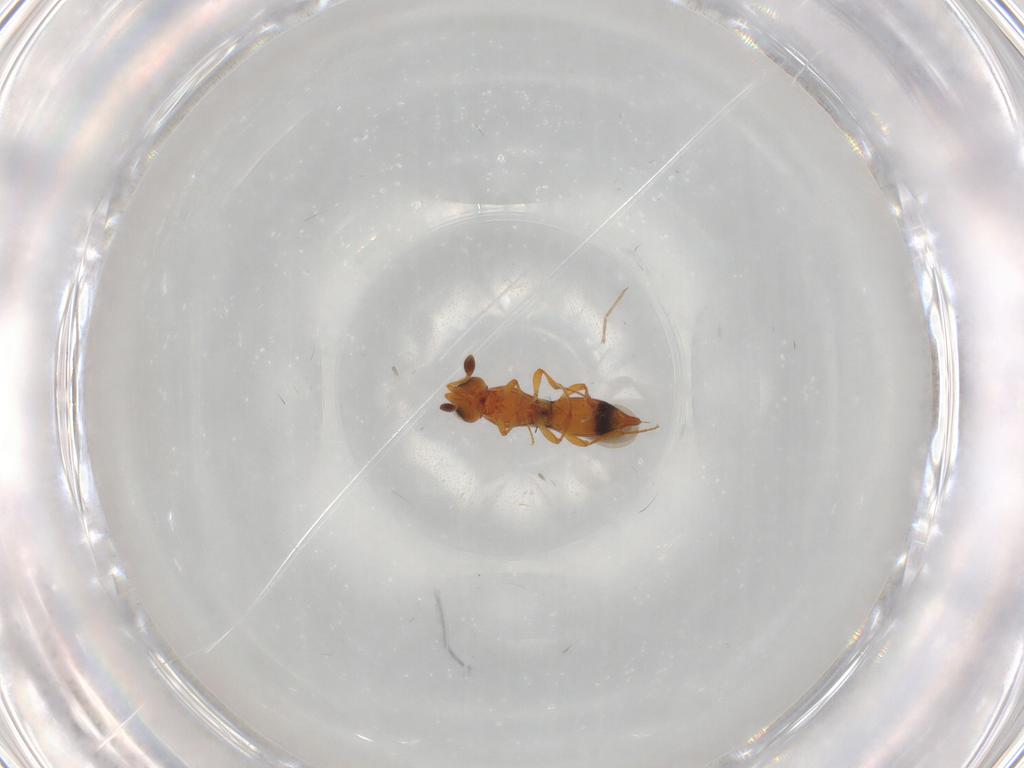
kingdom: Animalia
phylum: Arthropoda
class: Insecta
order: Hymenoptera
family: Platygastridae
